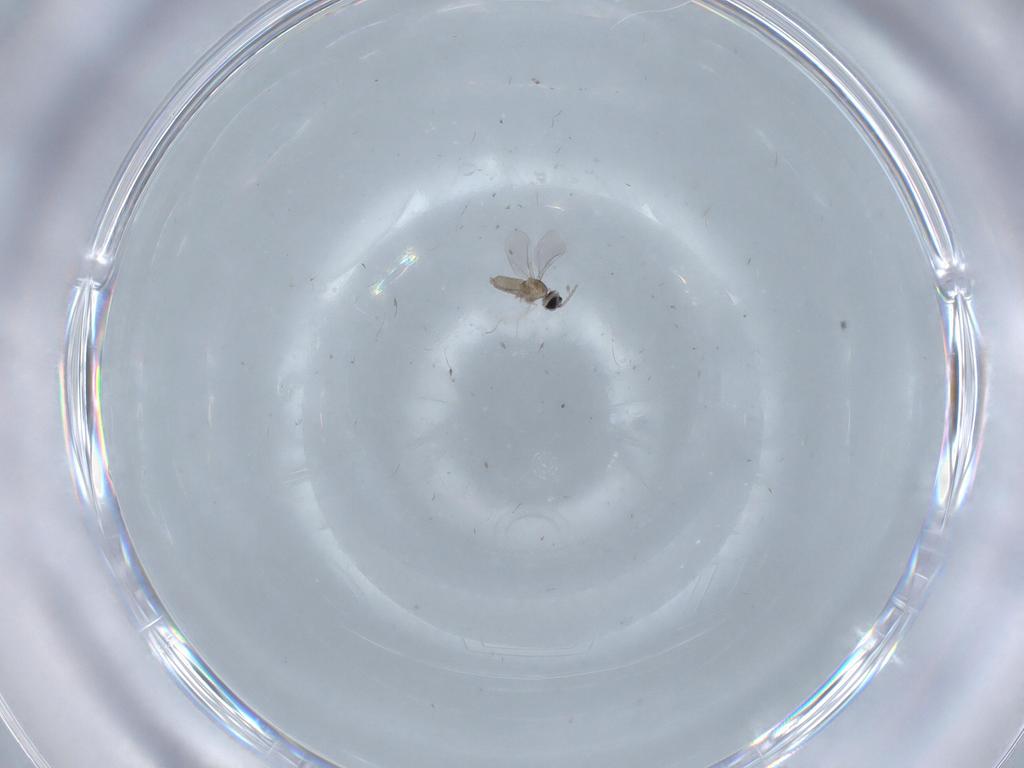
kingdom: Animalia
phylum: Arthropoda
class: Insecta
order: Diptera
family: Cecidomyiidae
